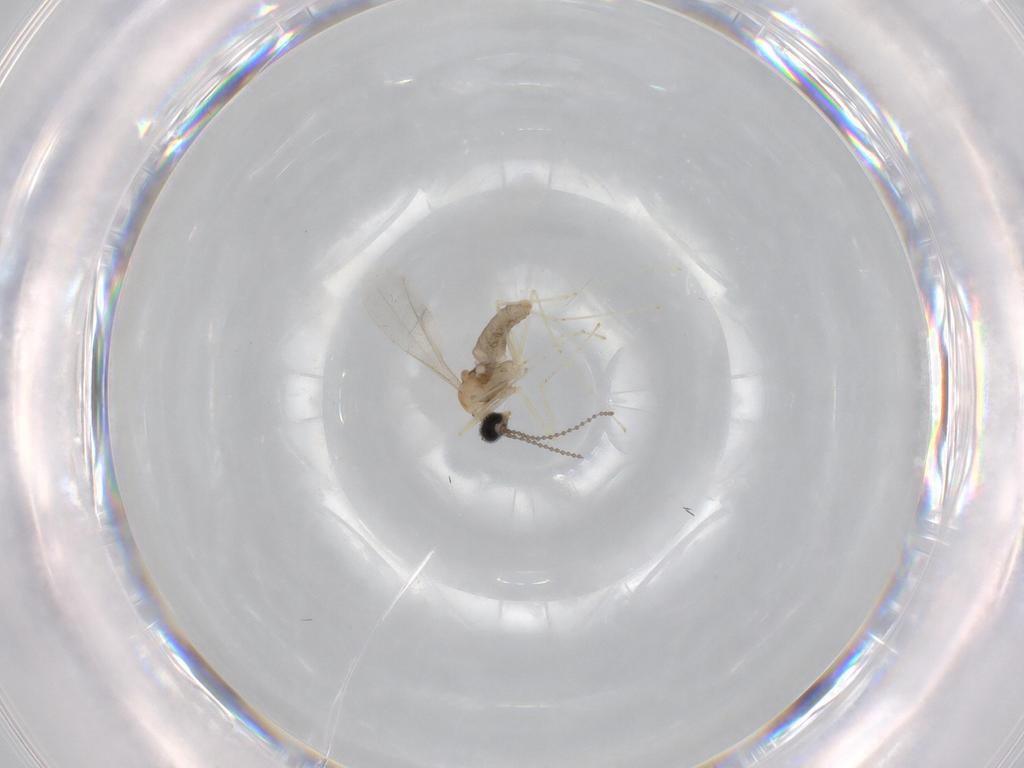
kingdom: Animalia
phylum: Arthropoda
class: Insecta
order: Diptera
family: Cecidomyiidae
